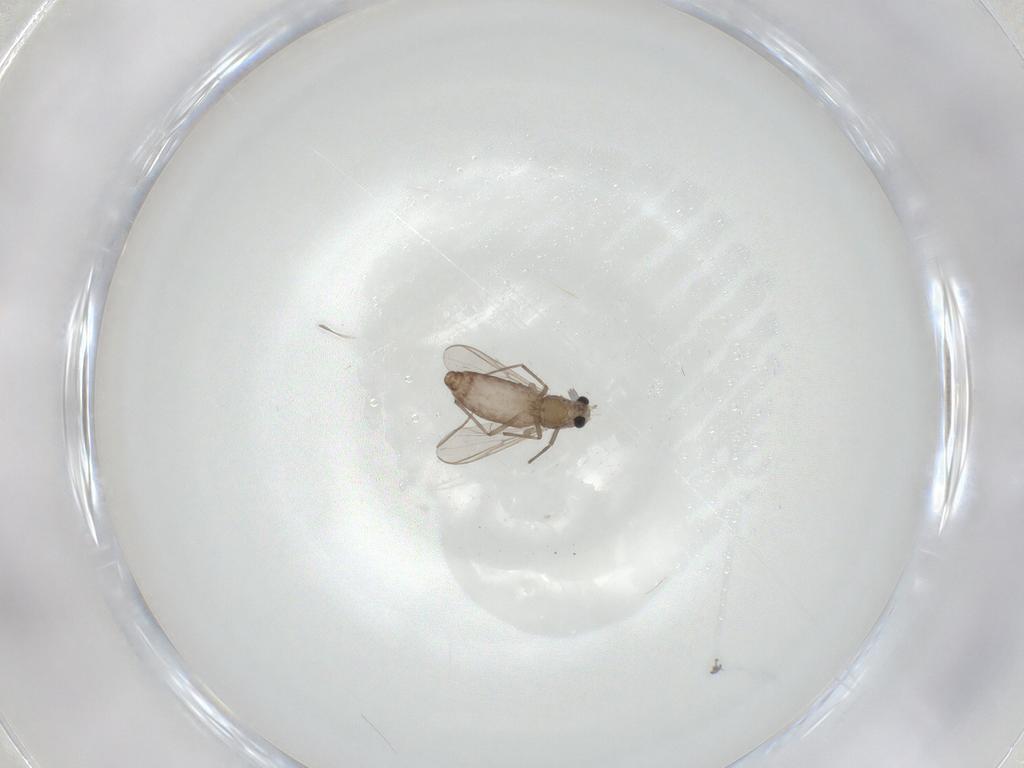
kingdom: Animalia
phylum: Arthropoda
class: Insecta
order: Diptera
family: Chironomidae
